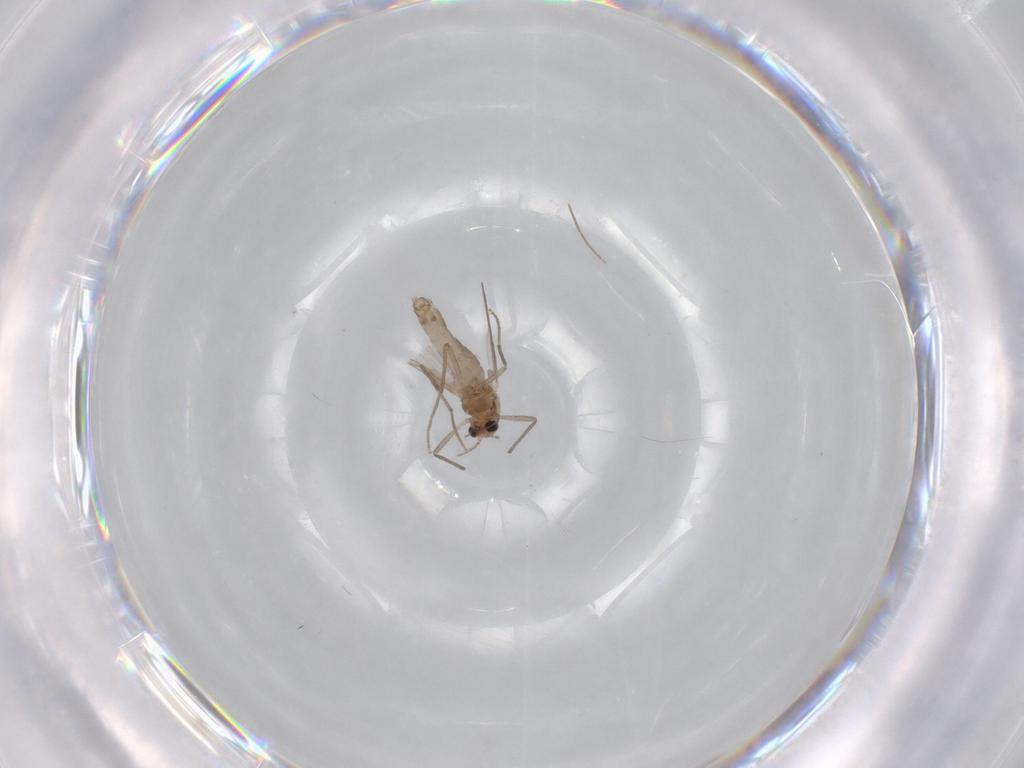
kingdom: Animalia
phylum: Arthropoda
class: Insecta
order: Diptera
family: Chironomidae
